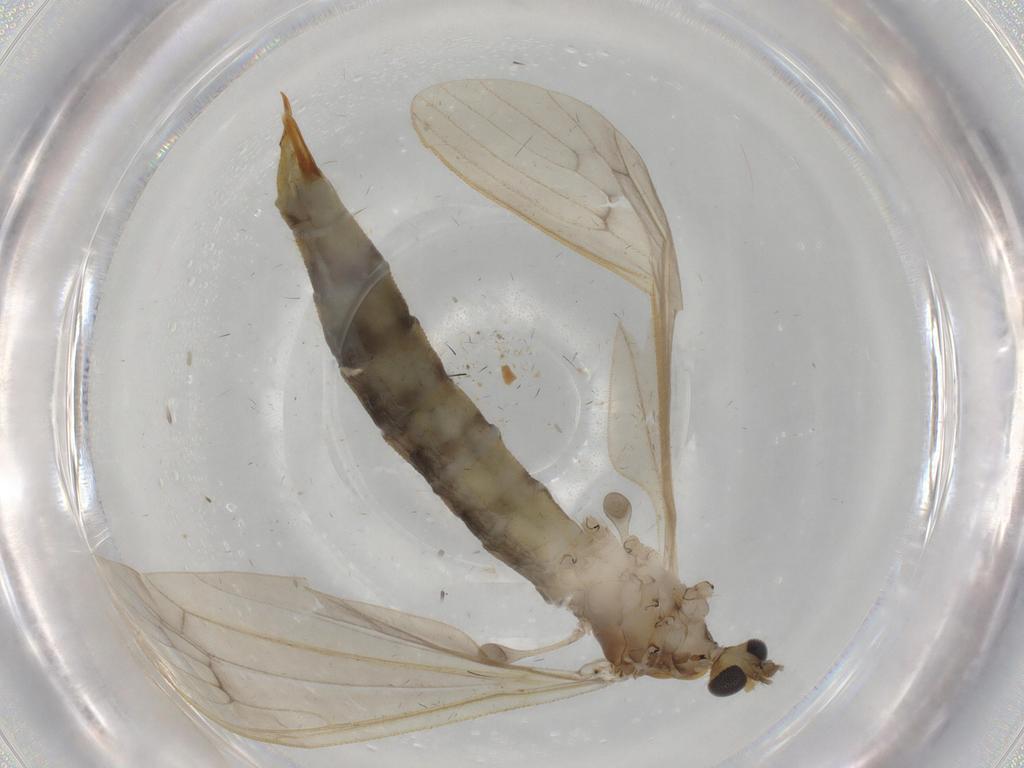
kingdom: Animalia
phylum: Arthropoda
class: Insecta
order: Diptera
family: Limoniidae
